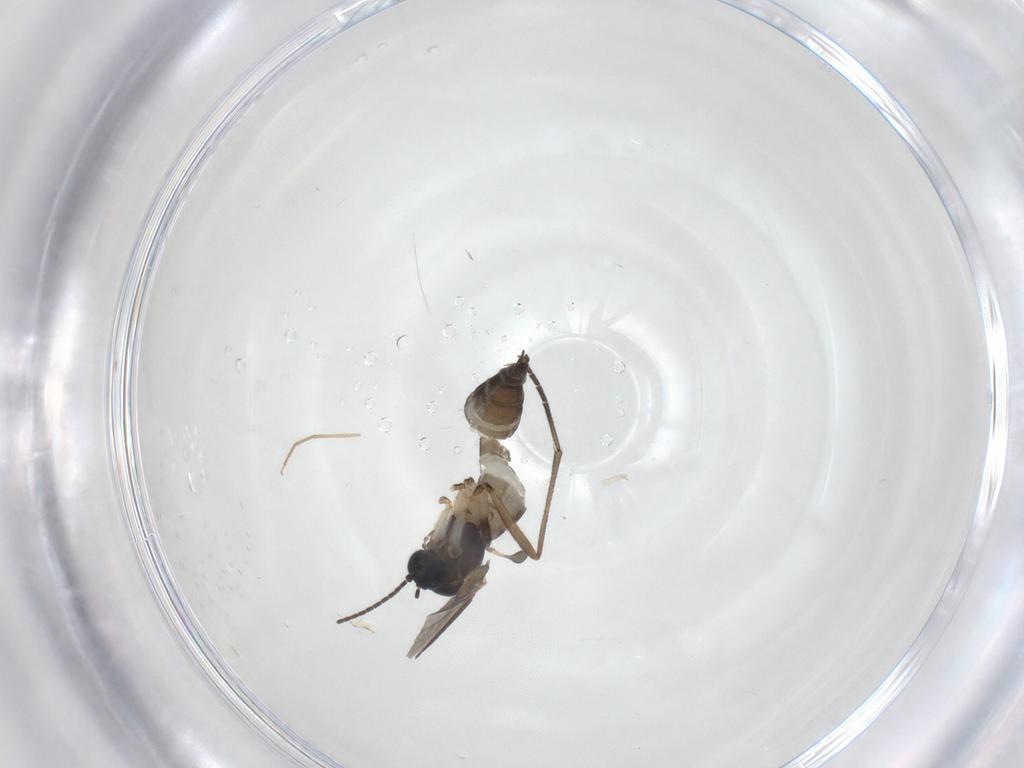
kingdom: Animalia
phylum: Arthropoda
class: Insecta
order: Diptera
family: Sciaridae
